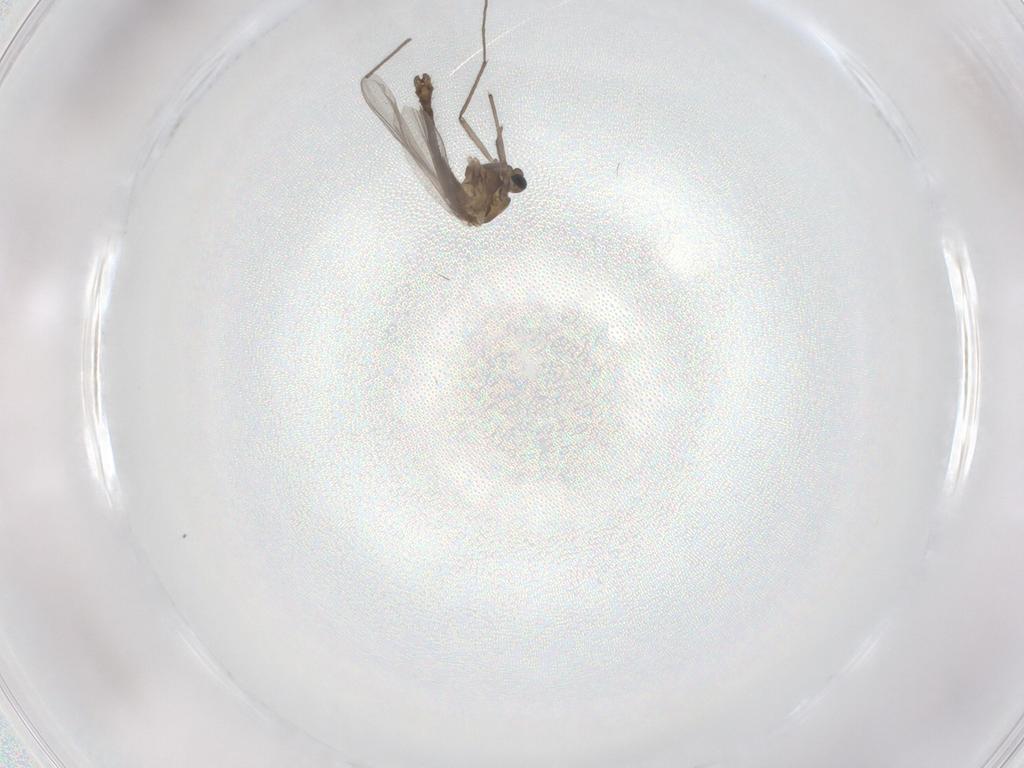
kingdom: Animalia
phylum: Arthropoda
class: Insecta
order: Diptera
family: Chironomidae
